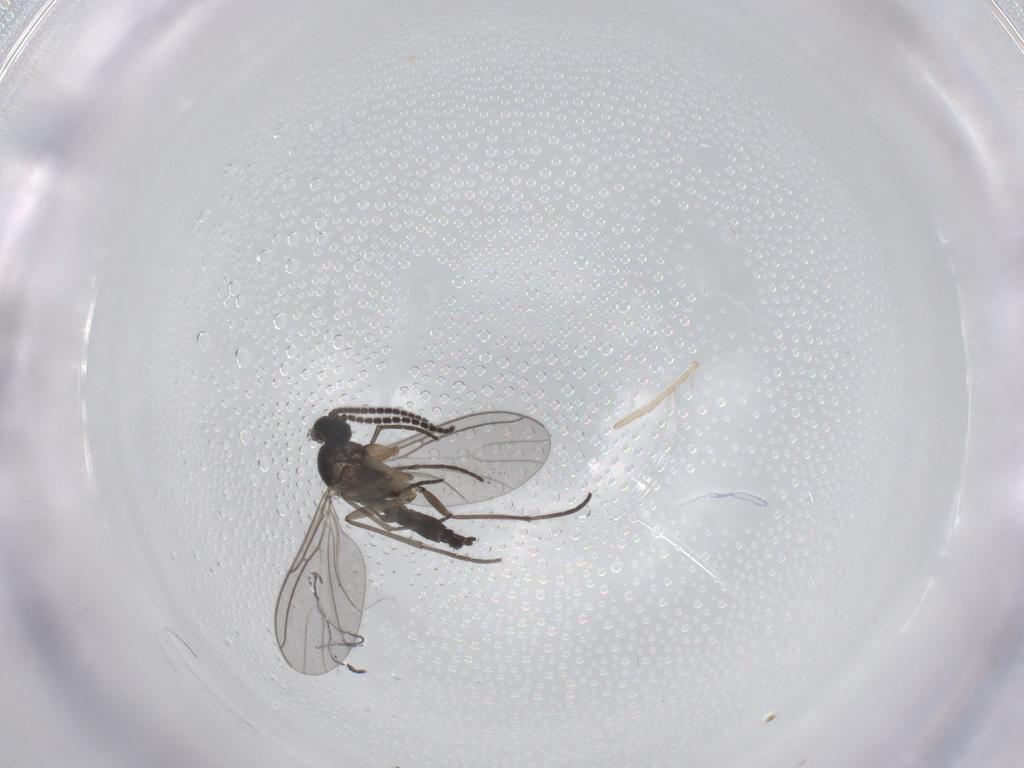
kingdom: Animalia
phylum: Arthropoda
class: Insecta
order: Diptera
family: Sciaridae
